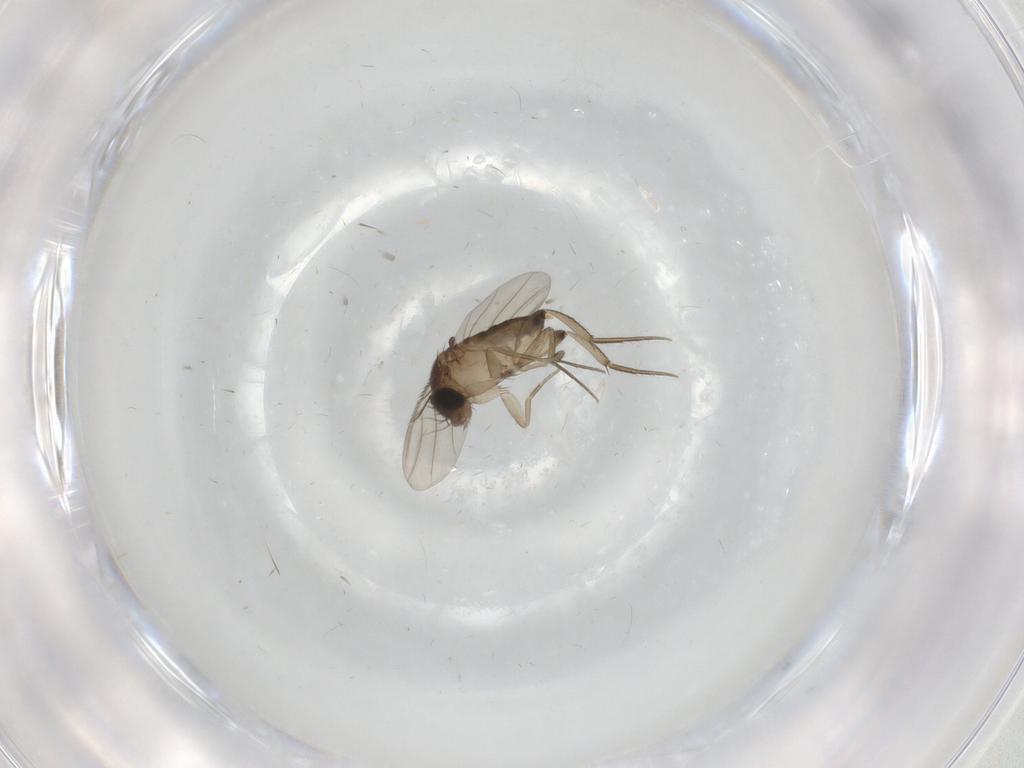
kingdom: Animalia
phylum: Arthropoda
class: Insecta
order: Diptera
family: Phoridae
